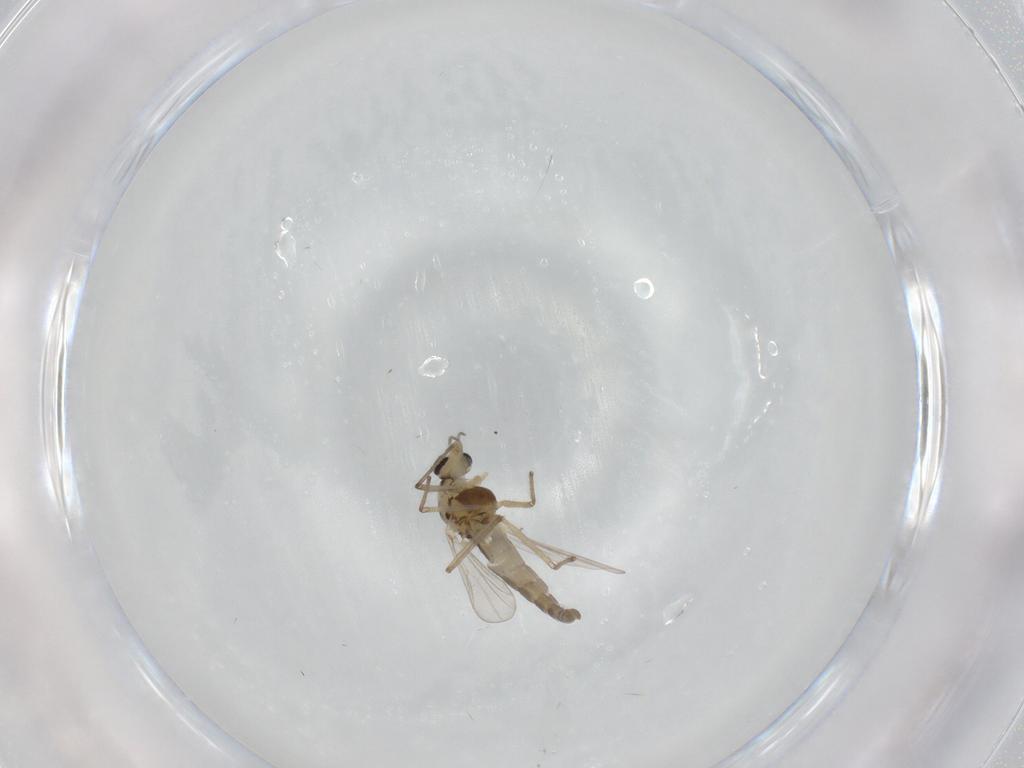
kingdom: Animalia
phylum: Arthropoda
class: Insecta
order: Diptera
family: Chironomidae
